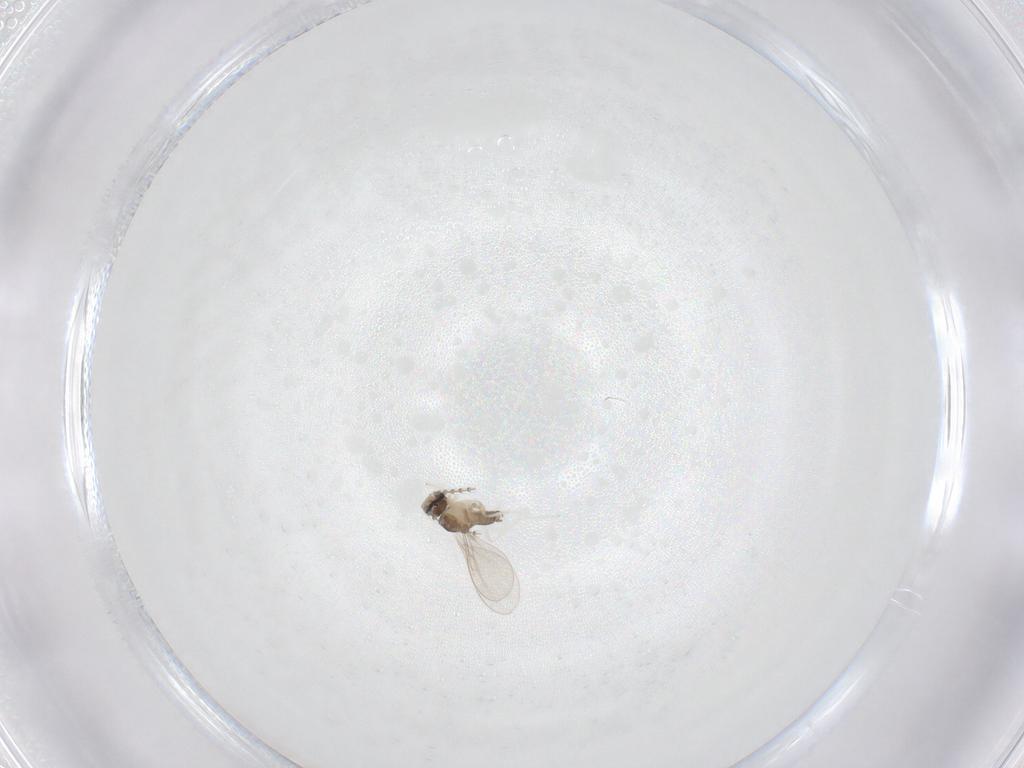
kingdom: Animalia
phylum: Arthropoda
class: Insecta
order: Diptera
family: Cecidomyiidae
